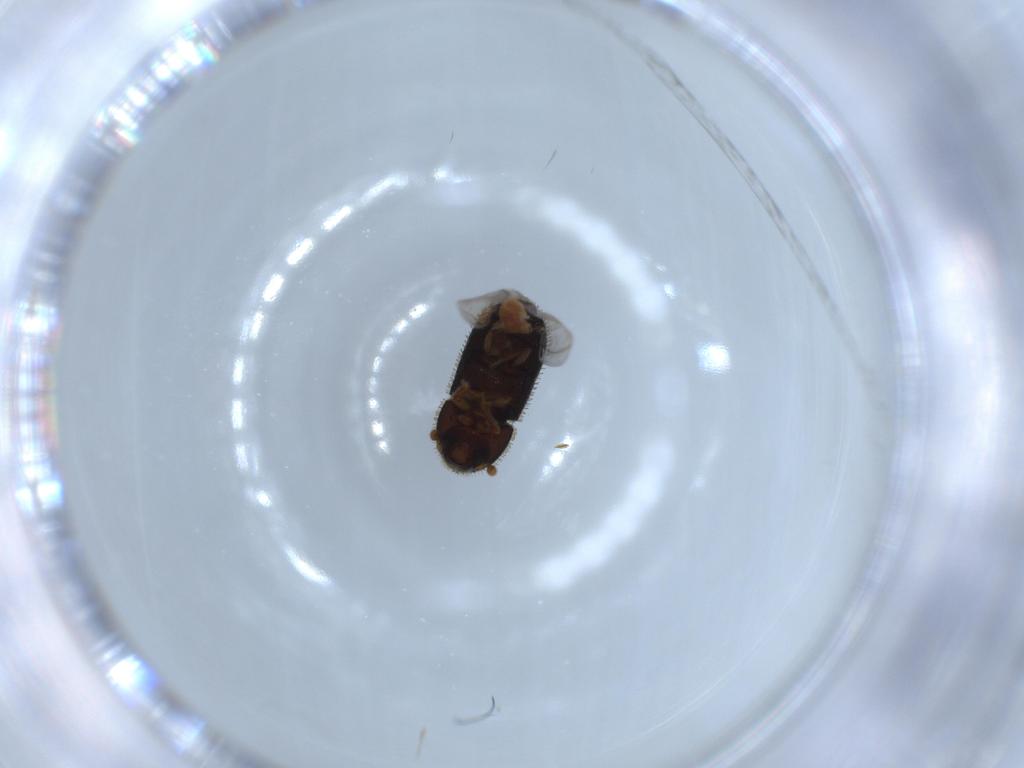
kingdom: Animalia
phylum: Arthropoda
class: Insecta
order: Coleoptera
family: Curculionidae
